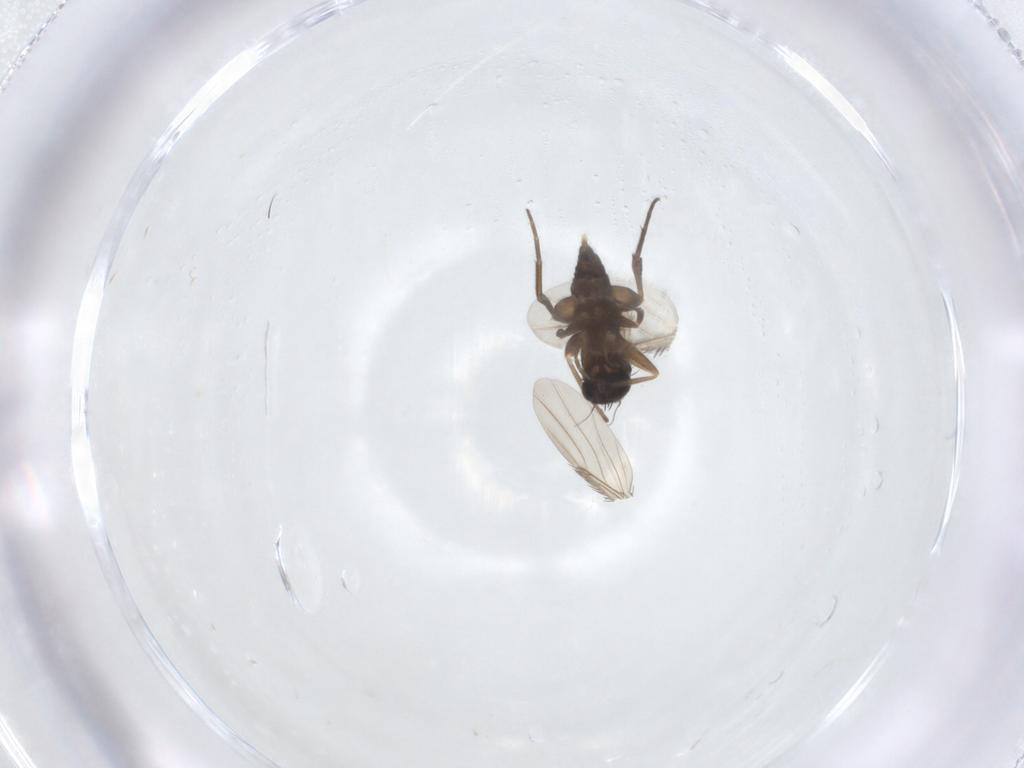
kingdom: Animalia
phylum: Arthropoda
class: Insecta
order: Diptera
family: Phoridae
